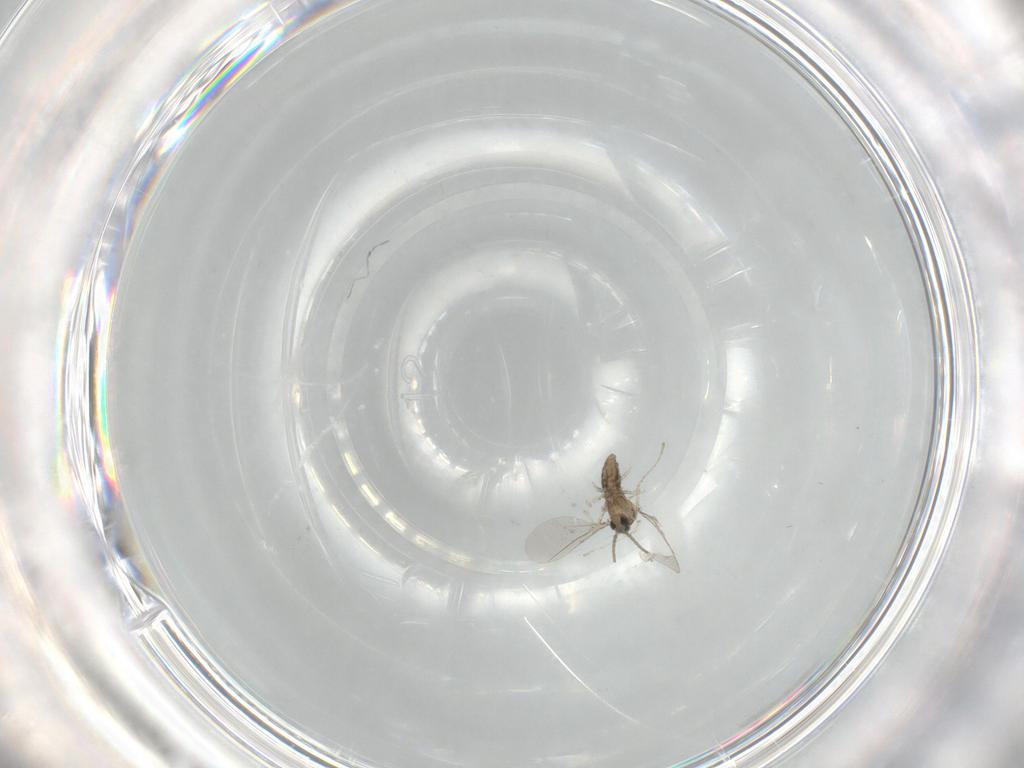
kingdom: Animalia
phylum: Arthropoda
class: Insecta
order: Diptera
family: Cecidomyiidae
